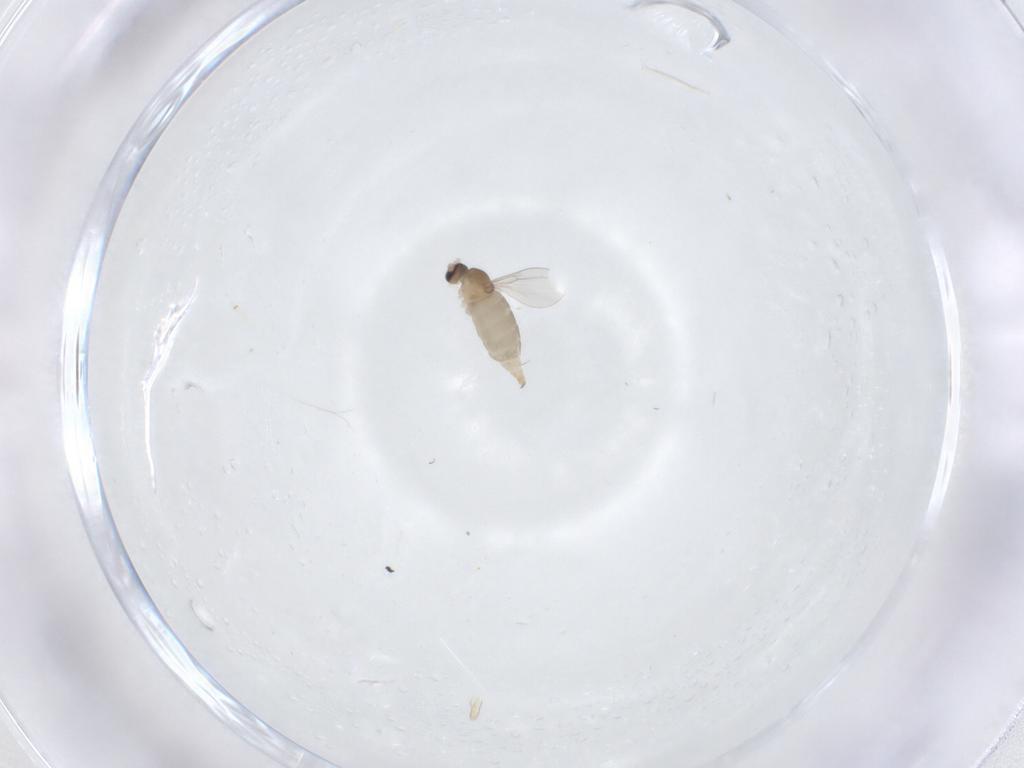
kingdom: Animalia
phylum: Arthropoda
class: Insecta
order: Diptera
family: Cecidomyiidae
